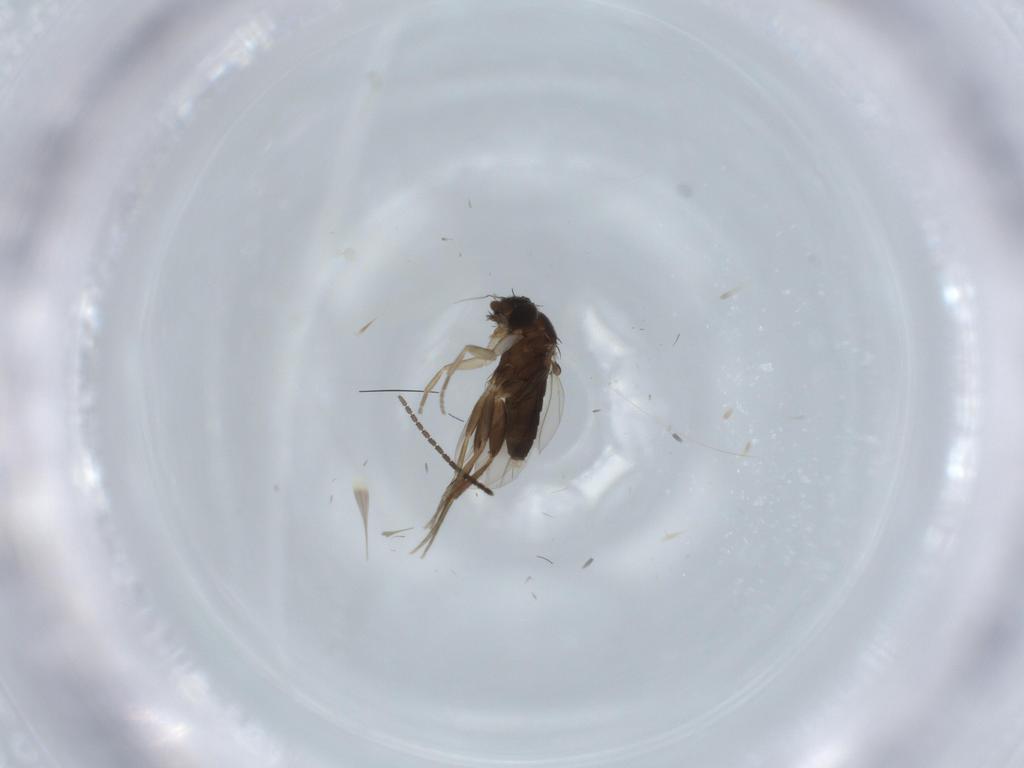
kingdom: Animalia
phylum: Arthropoda
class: Insecta
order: Diptera
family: Phoridae
